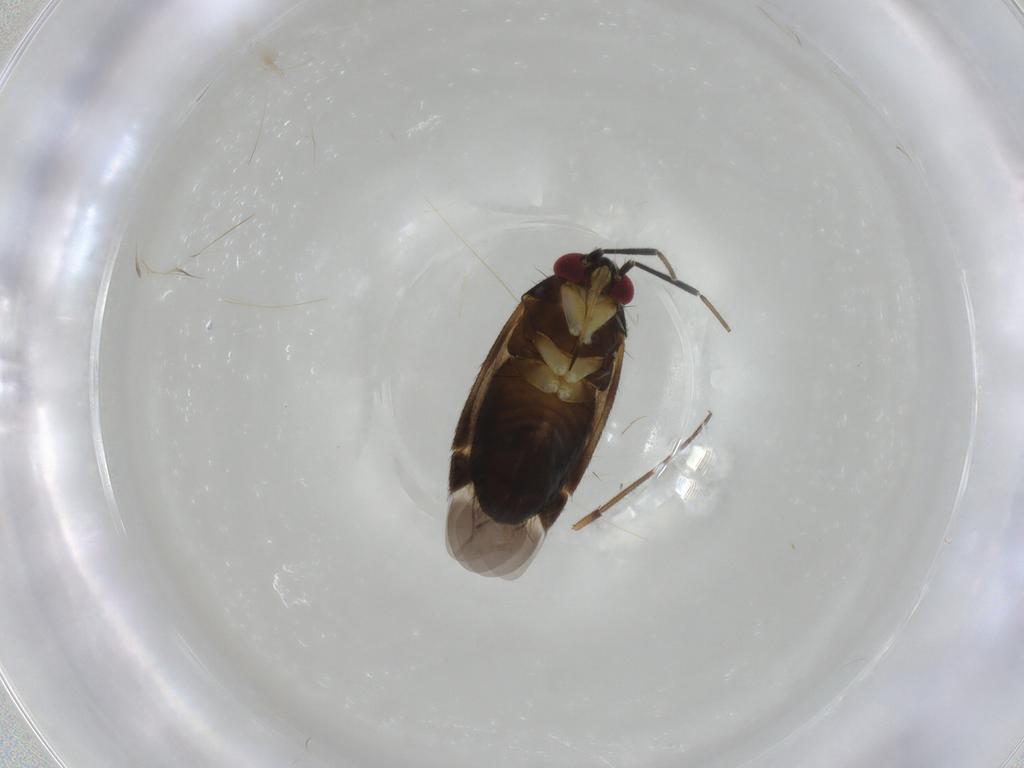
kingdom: Animalia
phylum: Arthropoda
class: Insecta
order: Hemiptera
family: Miridae
